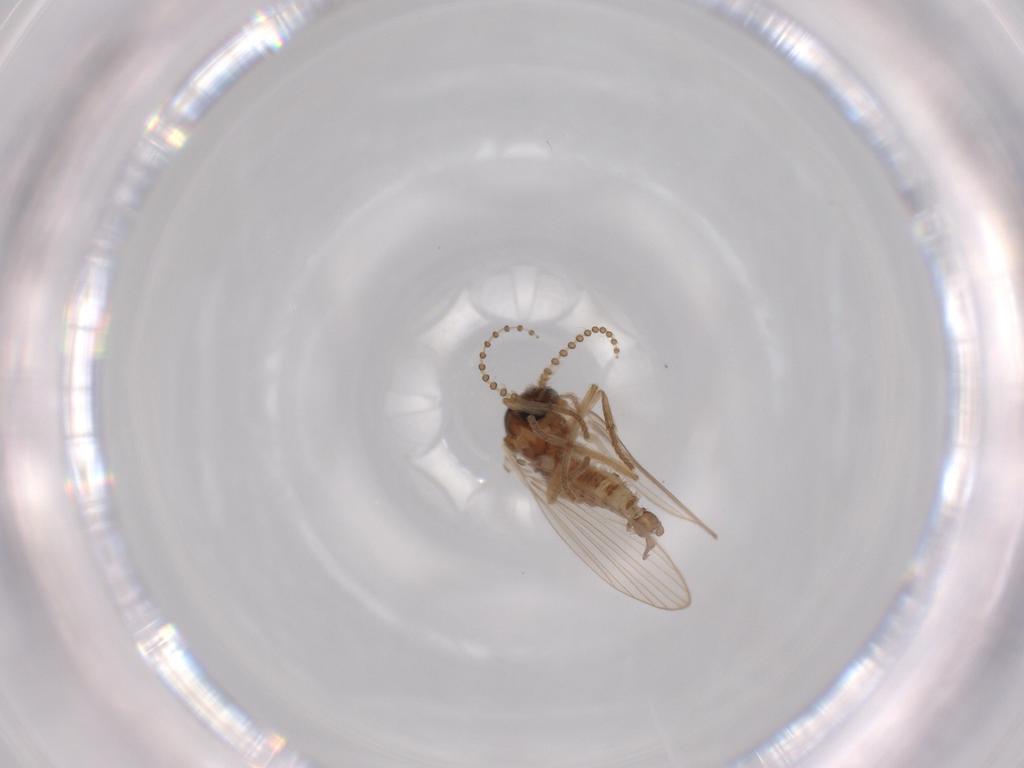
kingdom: Animalia
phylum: Arthropoda
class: Insecta
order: Diptera
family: Psychodidae
